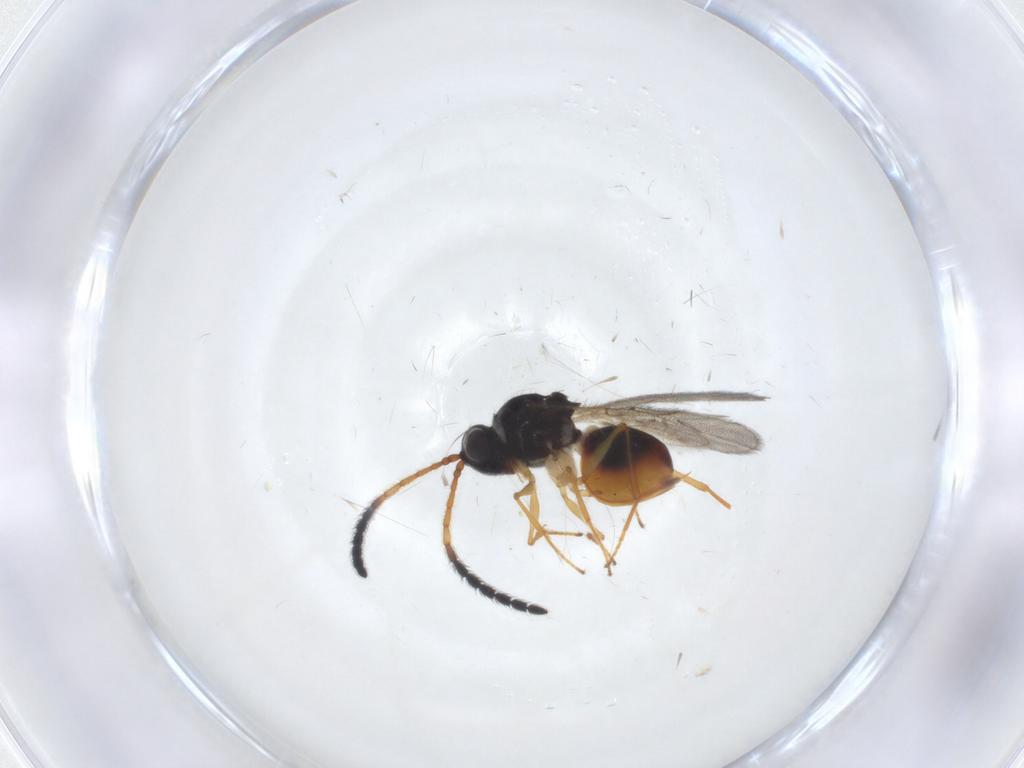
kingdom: Animalia
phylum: Arthropoda
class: Insecta
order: Hymenoptera
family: Figitidae
